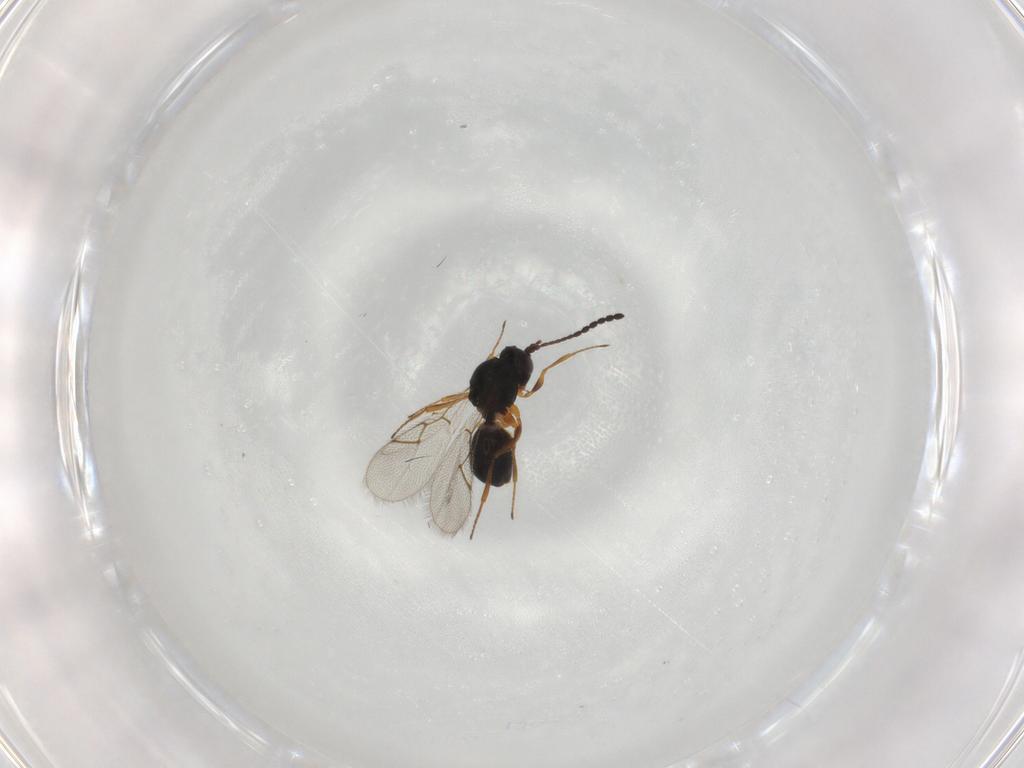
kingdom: Animalia
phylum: Arthropoda
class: Insecta
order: Hymenoptera
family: Figitidae
